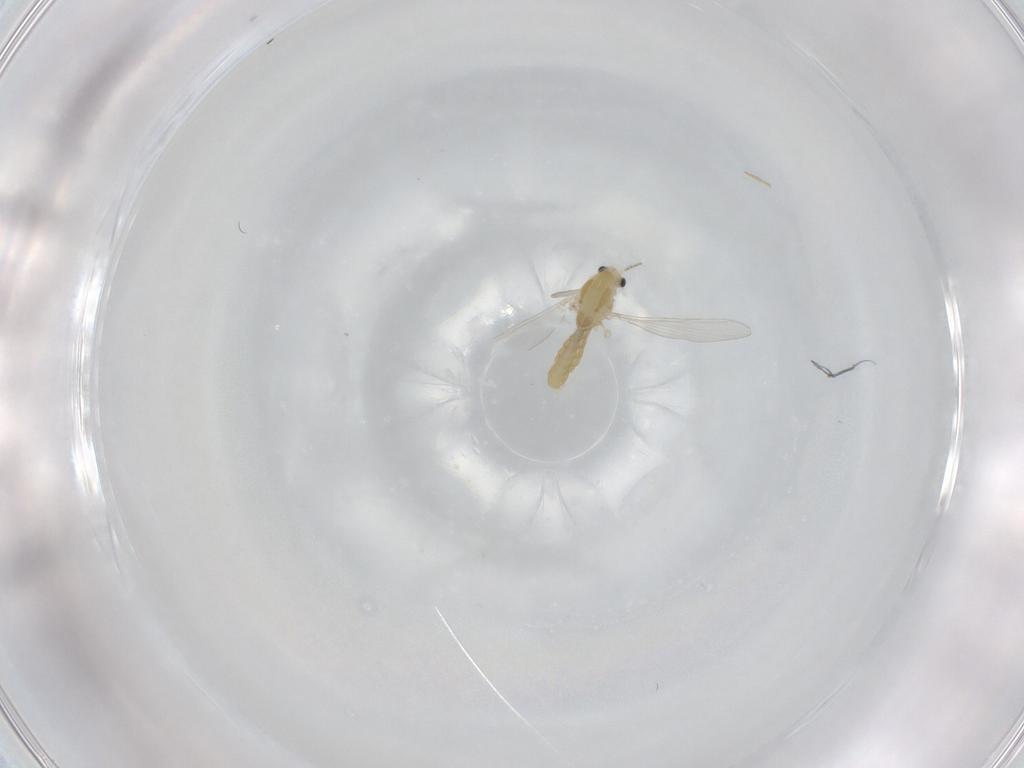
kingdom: Animalia
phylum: Arthropoda
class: Insecta
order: Diptera
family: Chironomidae
